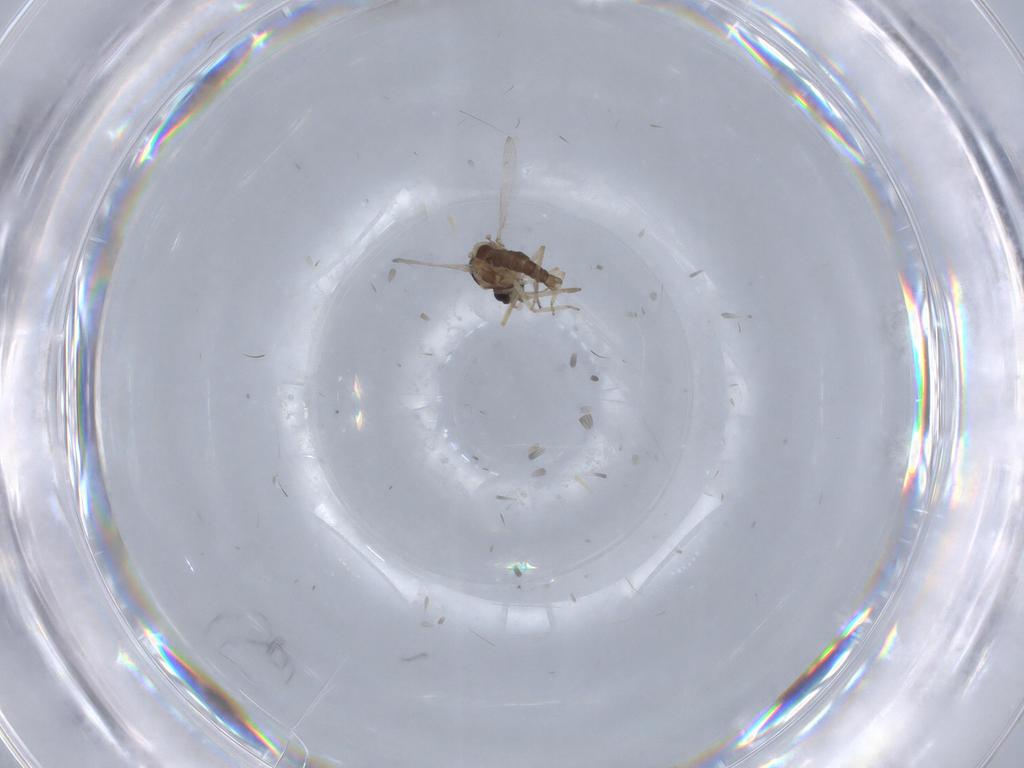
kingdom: Animalia
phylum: Arthropoda
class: Insecta
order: Diptera
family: Ceratopogonidae
